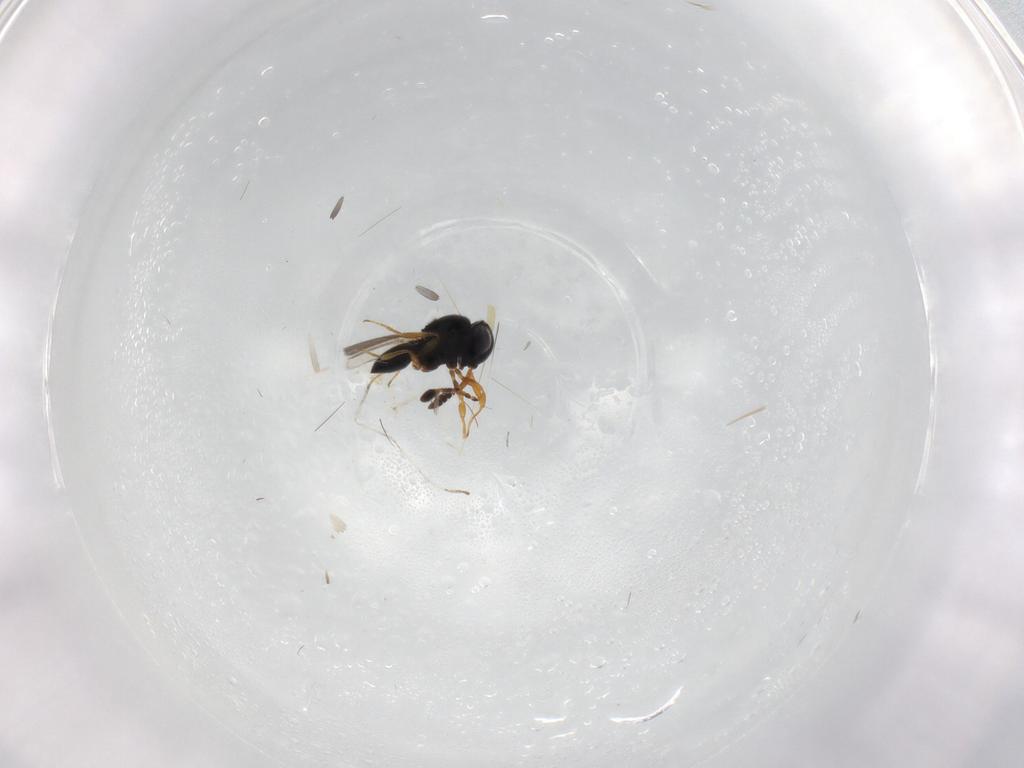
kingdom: Animalia
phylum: Arthropoda
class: Insecta
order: Hymenoptera
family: Scelionidae
